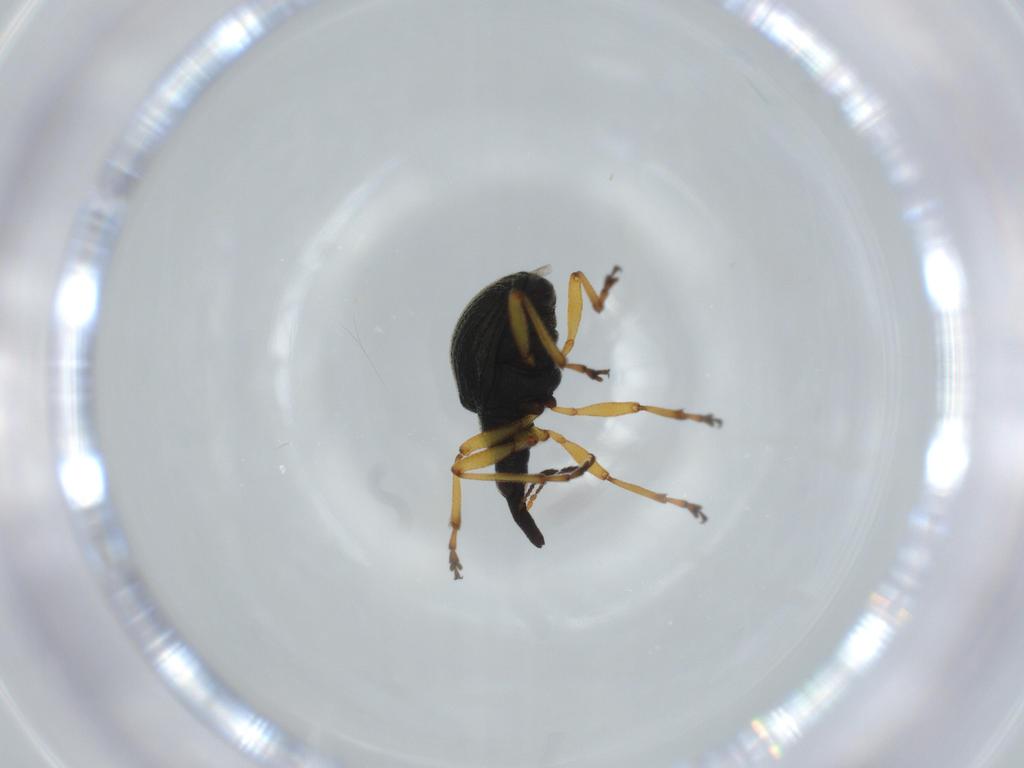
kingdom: Animalia
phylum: Arthropoda
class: Insecta
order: Coleoptera
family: Brentidae
